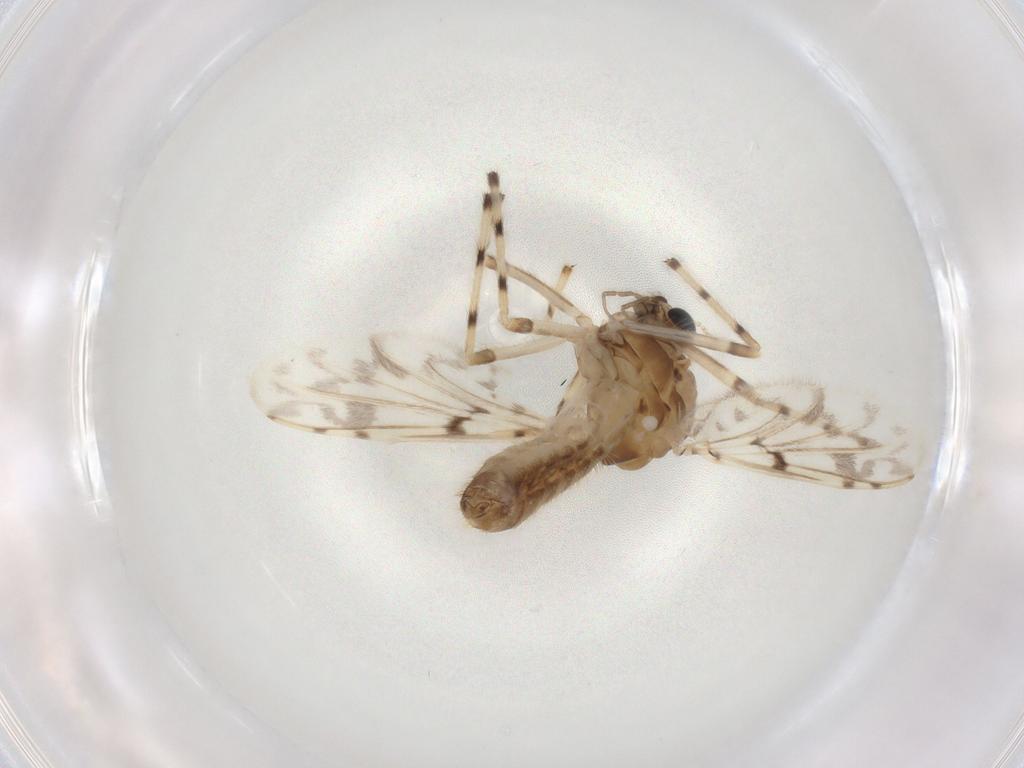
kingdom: Animalia
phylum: Arthropoda
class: Insecta
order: Diptera
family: Chironomidae
